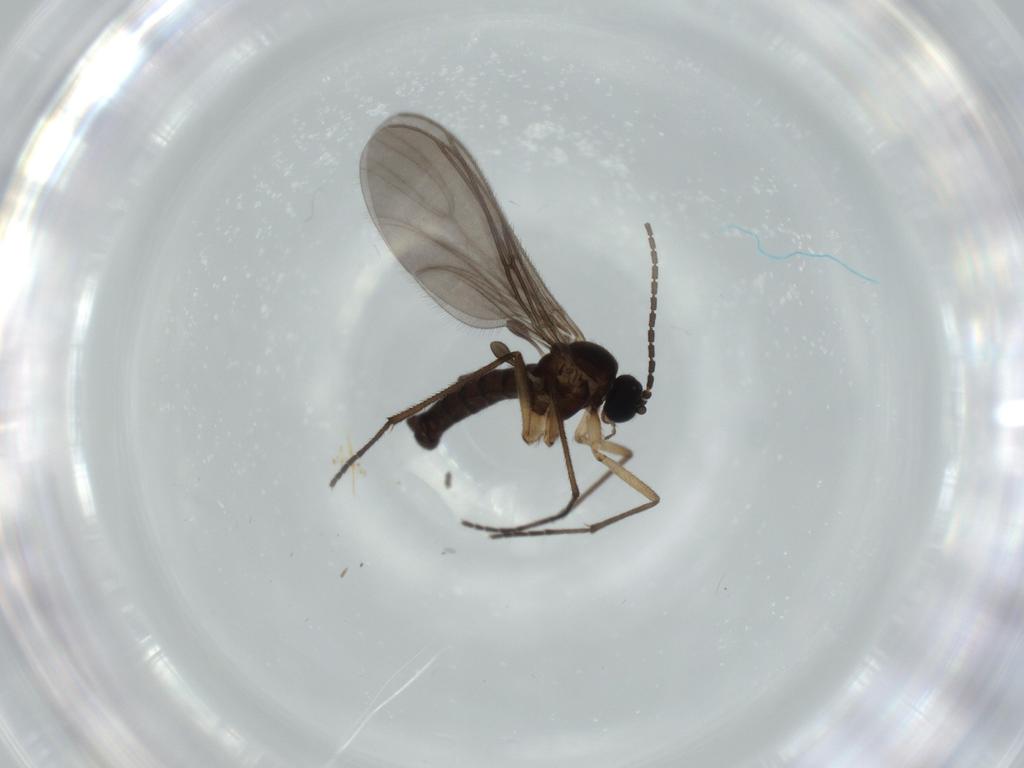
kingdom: Animalia
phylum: Arthropoda
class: Insecta
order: Diptera
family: Sciaridae
